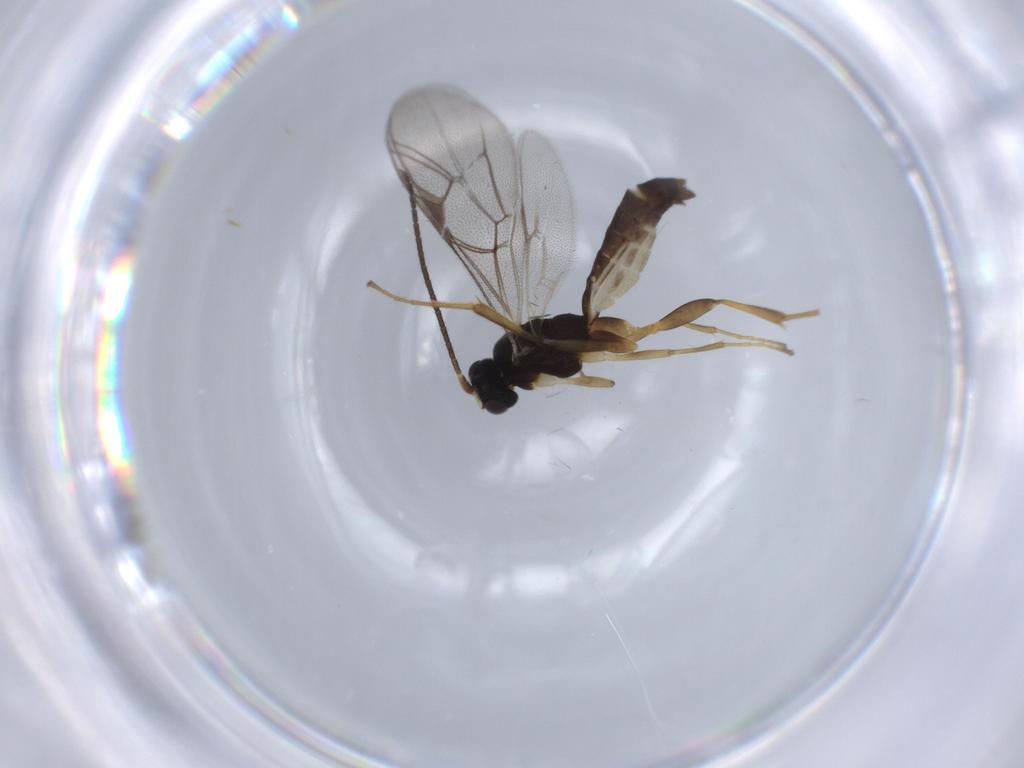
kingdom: Animalia
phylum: Arthropoda
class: Insecta
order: Hymenoptera
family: Ichneumonidae
